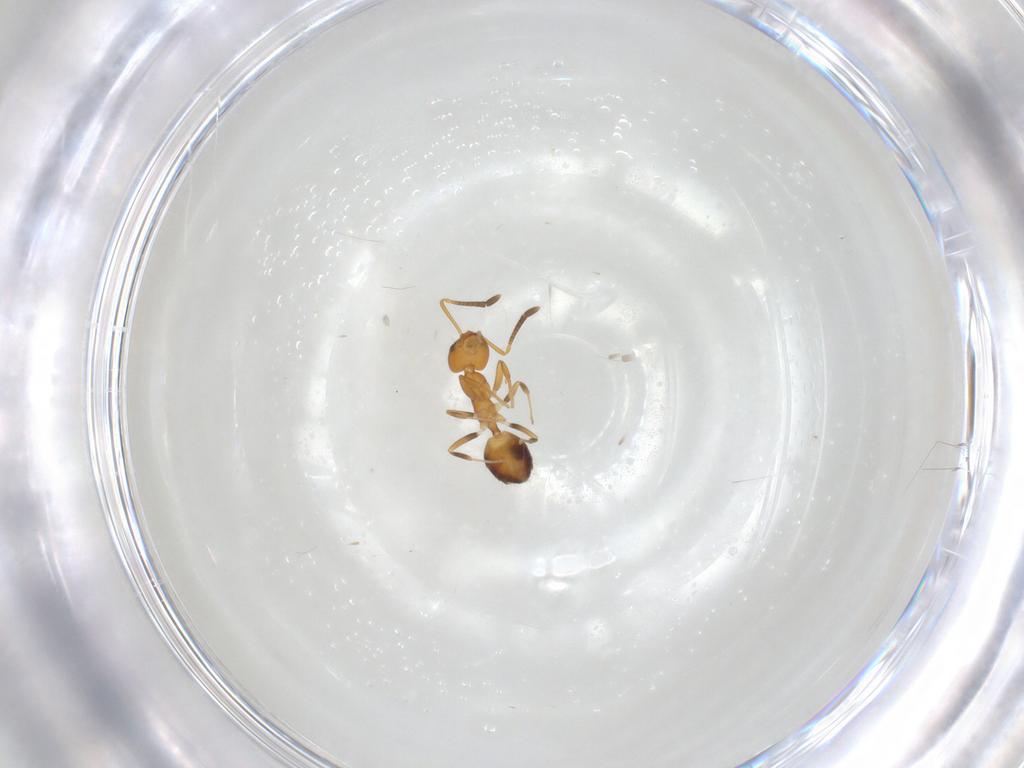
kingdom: Animalia
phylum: Arthropoda
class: Insecta
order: Hymenoptera
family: Formicidae
